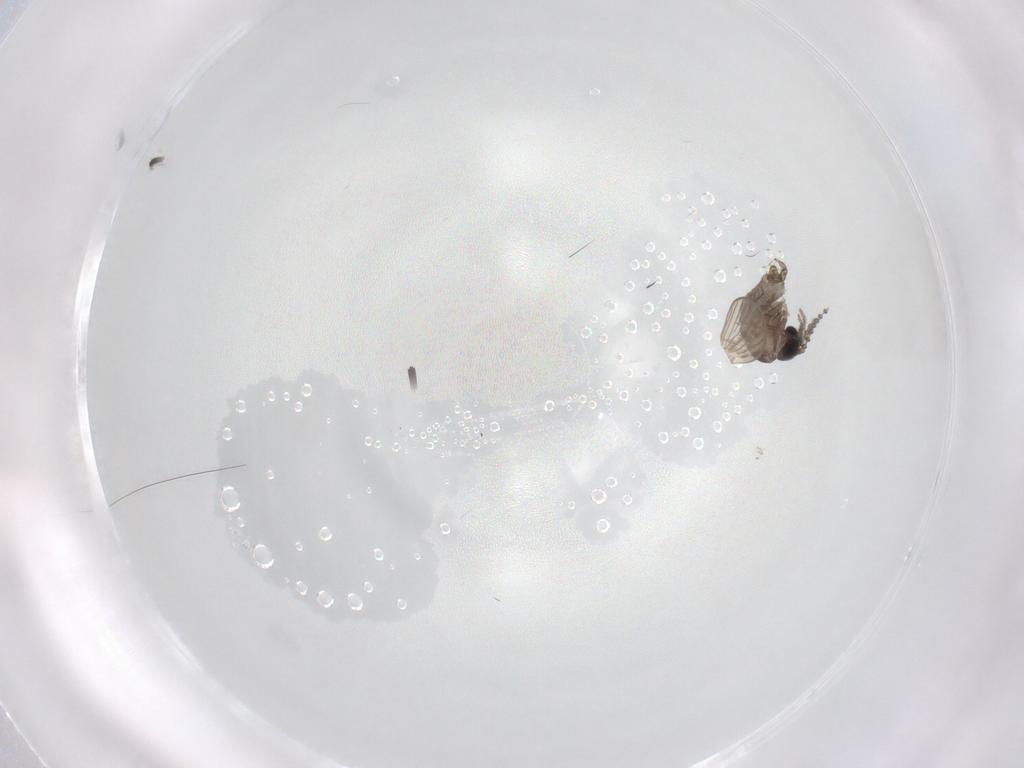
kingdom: Animalia
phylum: Arthropoda
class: Insecta
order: Diptera
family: Psychodidae
